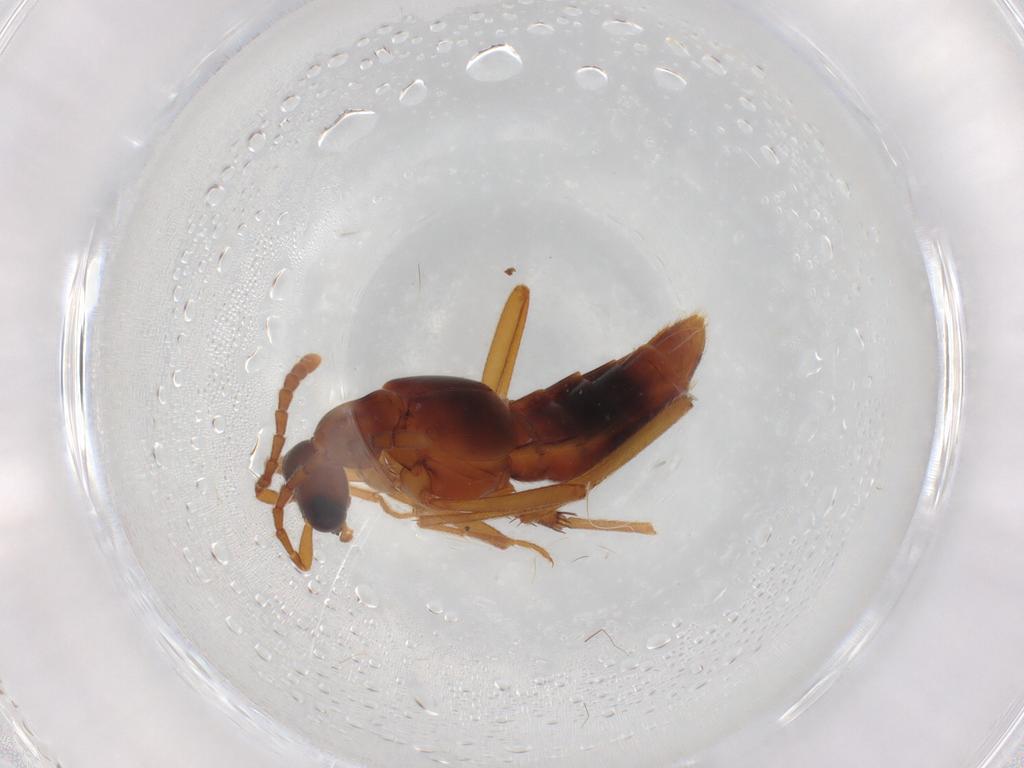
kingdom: Animalia
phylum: Arthropoda
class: Insecta
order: Coleoptera
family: Staphylinidae
